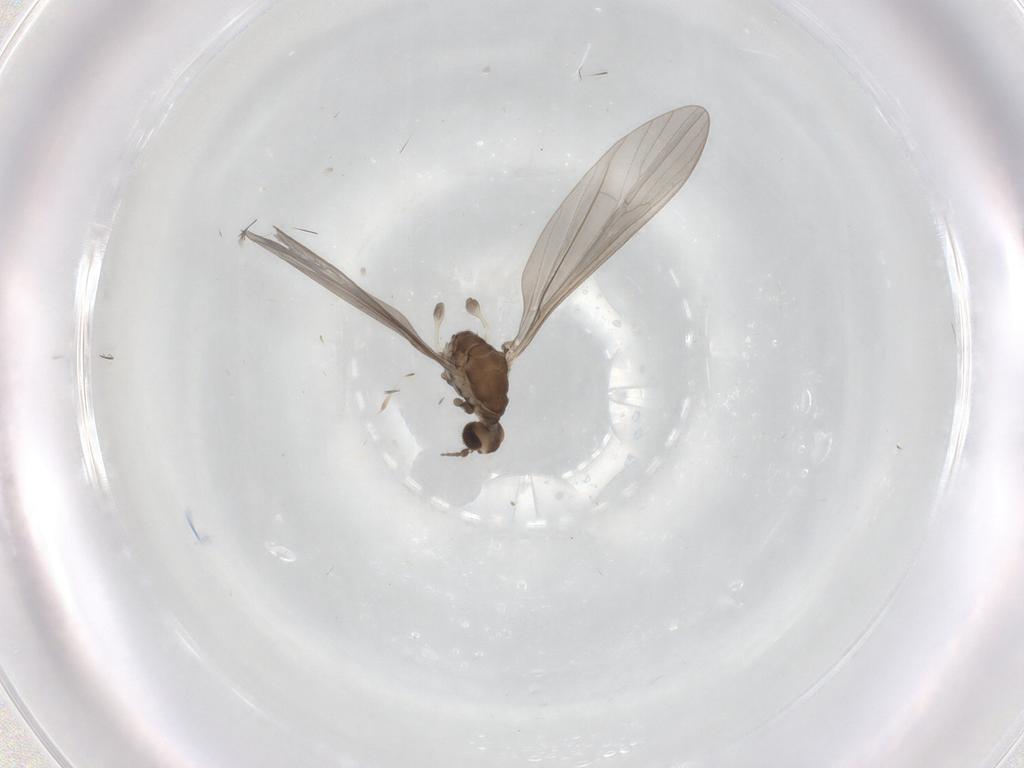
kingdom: Animalia
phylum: Arthropoda
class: Insecta
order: Diptera
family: Phoridae
